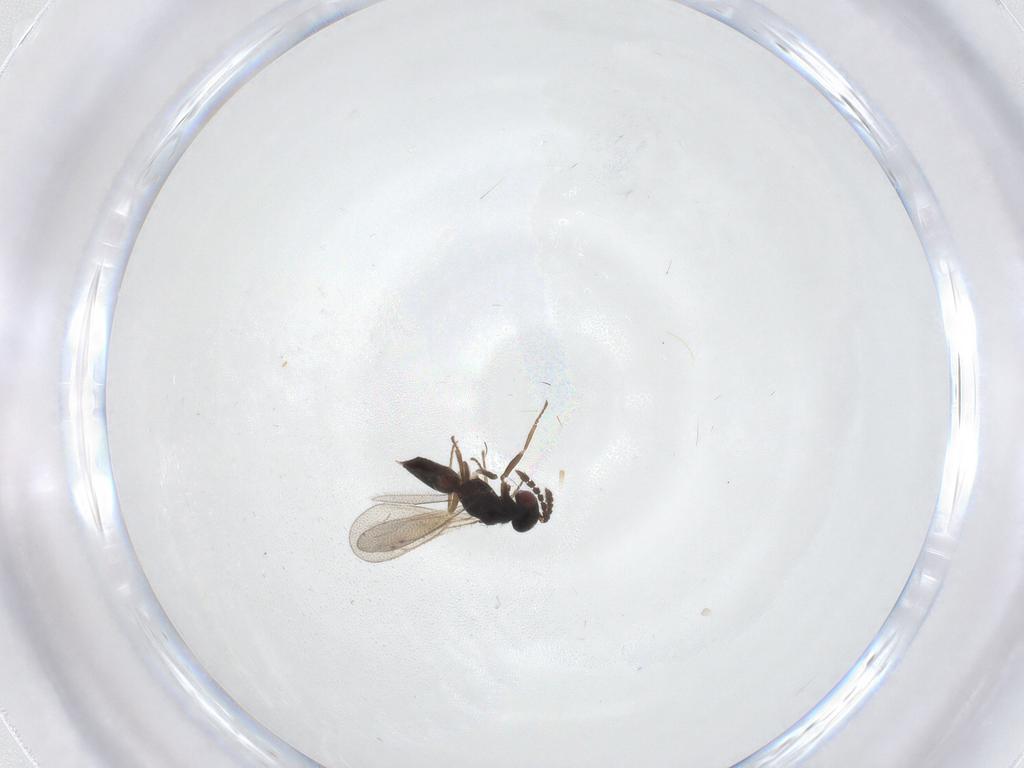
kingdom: Animalia
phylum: Arthropoda
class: Insecta
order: Hymenoptera
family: Eulophidae
